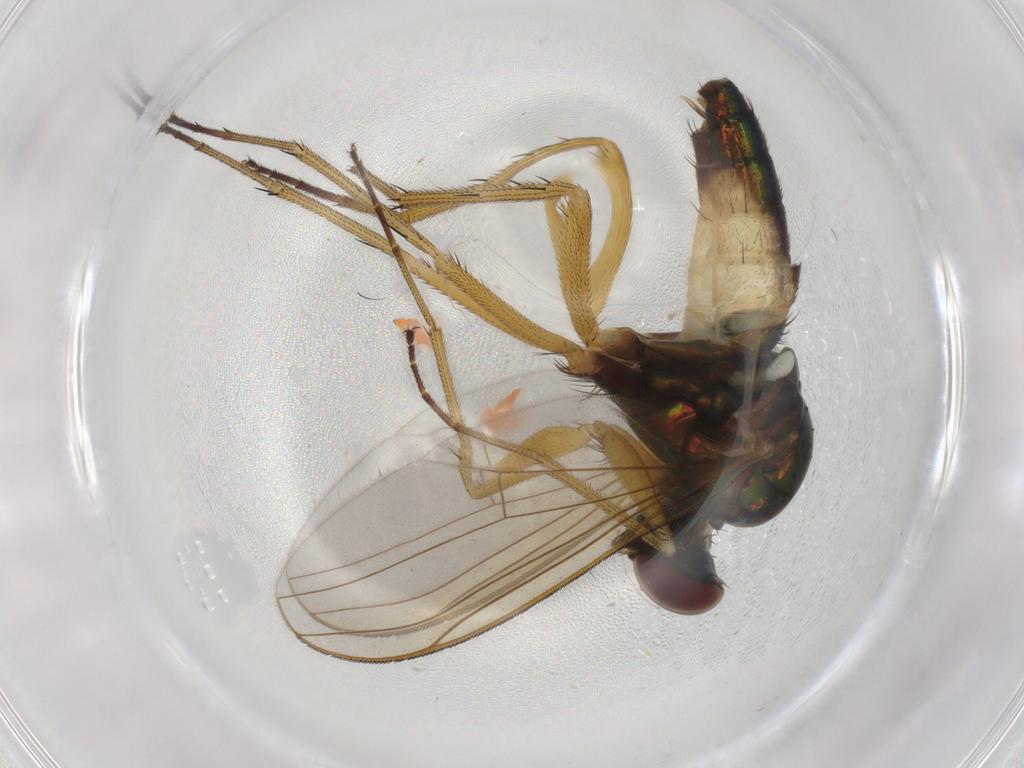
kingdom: Animalia
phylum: Arthropoda
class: Insecta
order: Diptera
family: Cecidomyiidae
